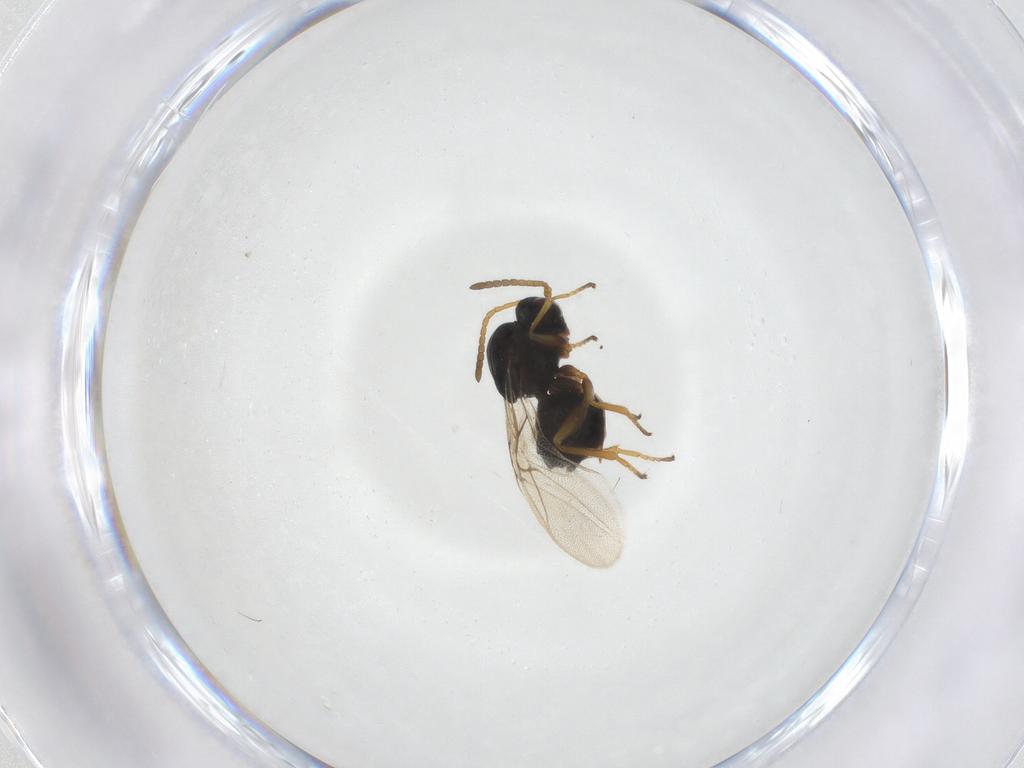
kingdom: Animalia
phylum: Arthropoda
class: Insecta
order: Hymenoptera
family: Cynipidae
